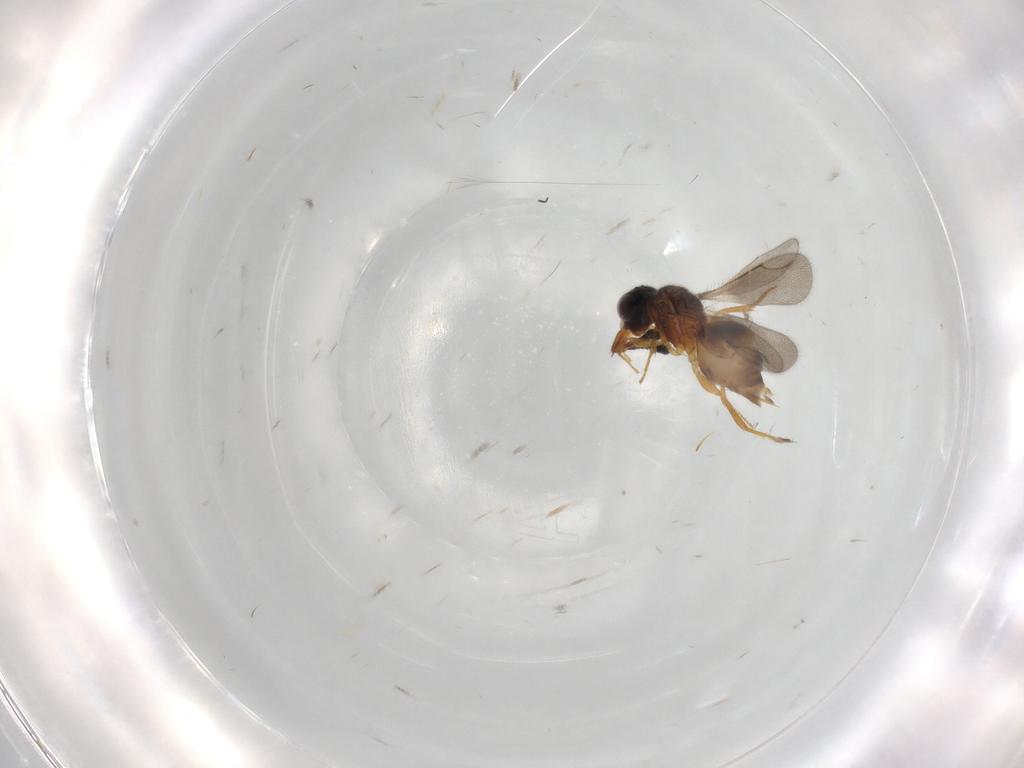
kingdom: Animalia
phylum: Arthropoda
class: Insecta
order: Hymenoptera
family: Ceraphronidae
